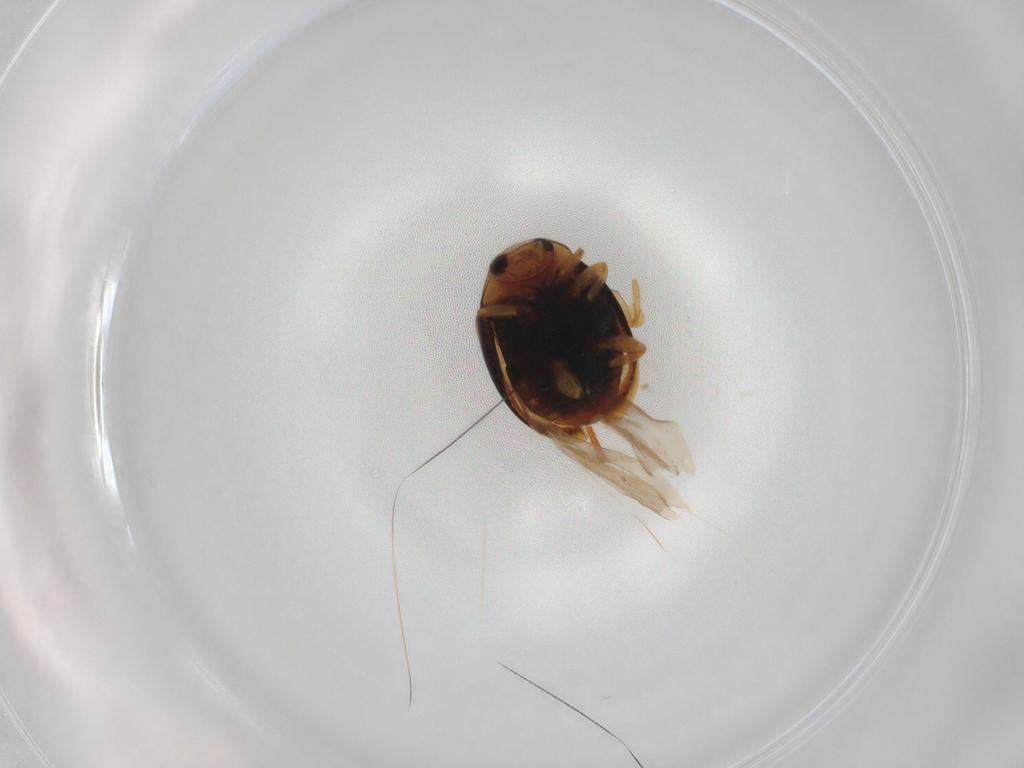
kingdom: Animalia
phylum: Arthropoda
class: Insecta
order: Coleoptera
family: Coccinellidae
